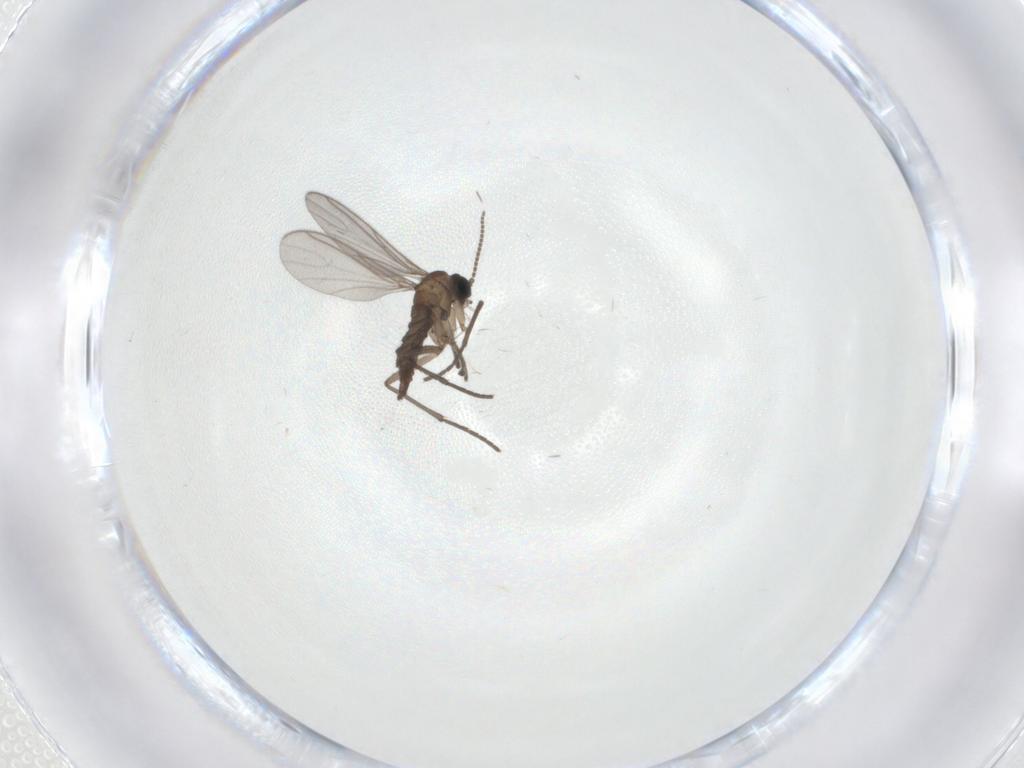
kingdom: Animalia
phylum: Arthropoda
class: Insecta
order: Diptera
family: Sciaridae
